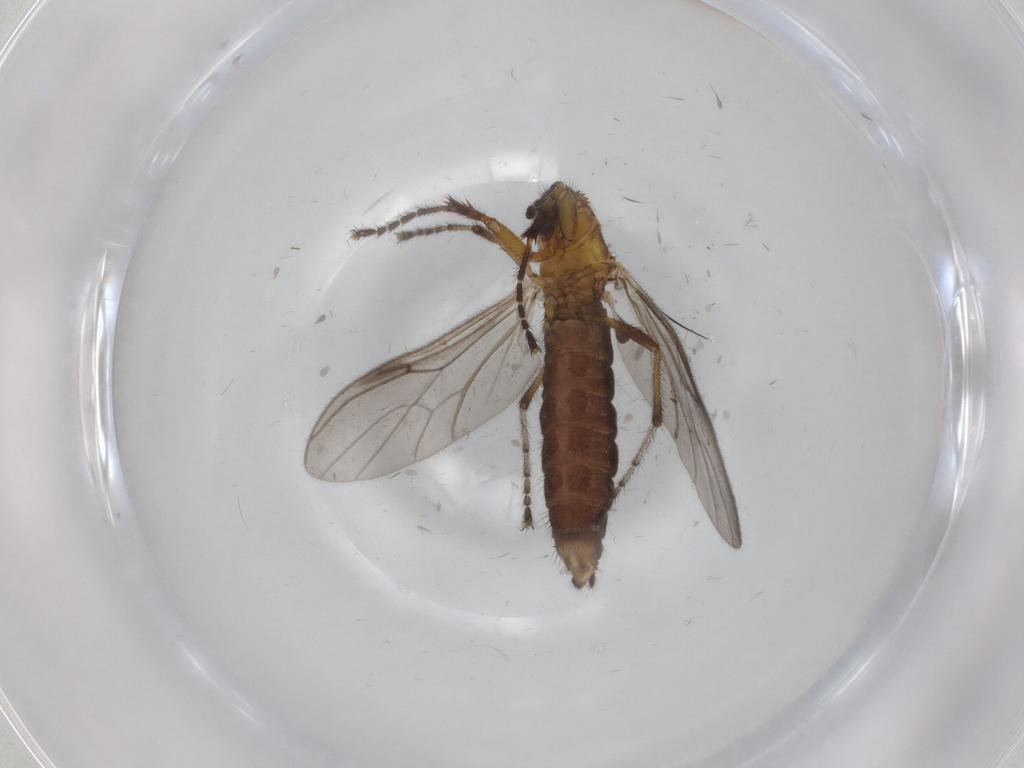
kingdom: Animalia
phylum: Arthropoda
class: Insecta
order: Diptera
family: Bibionidae
